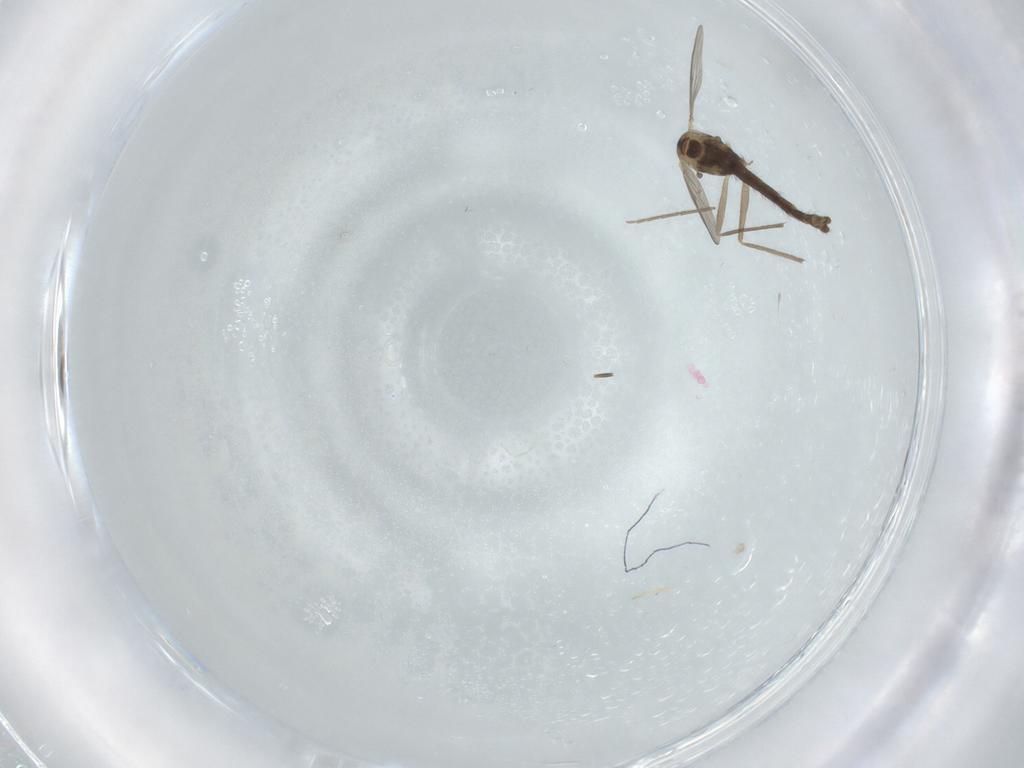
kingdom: Animalia
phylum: Arthropoda
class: Insecta
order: Diptera
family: Chironomidae
